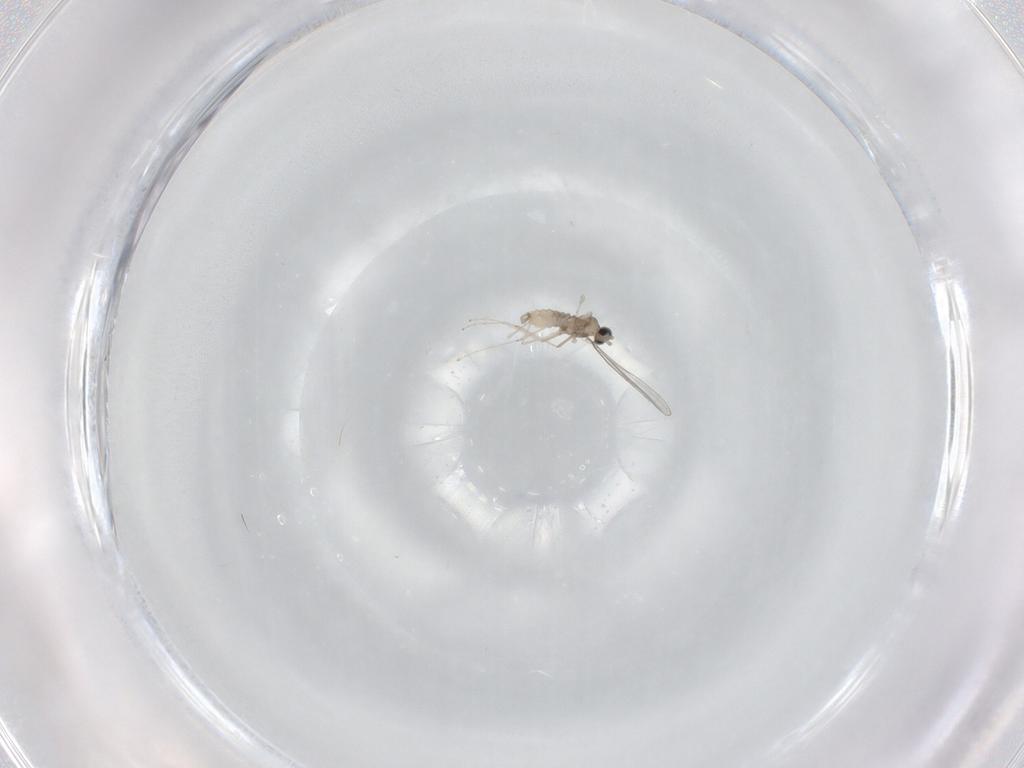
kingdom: Animalia
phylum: Arthropoda
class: Insecta
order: Diptera
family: Cecidomyiidae
